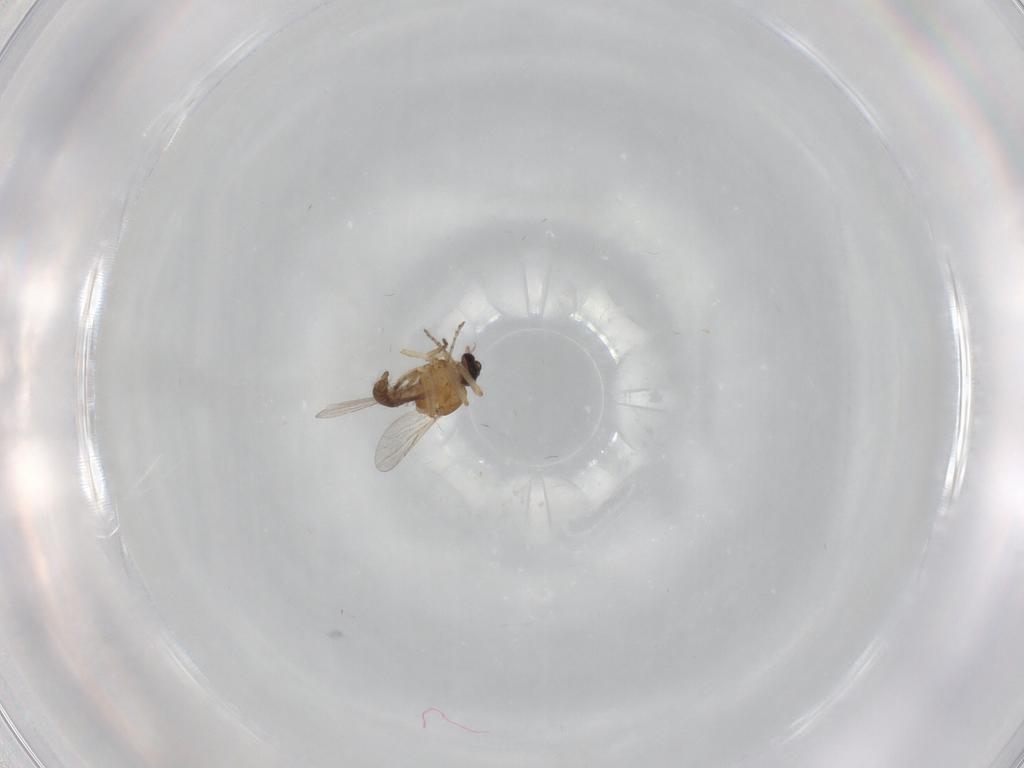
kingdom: Animalia
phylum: Arthropoda
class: Insecta
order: Diptera
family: Ceratopogonidae
